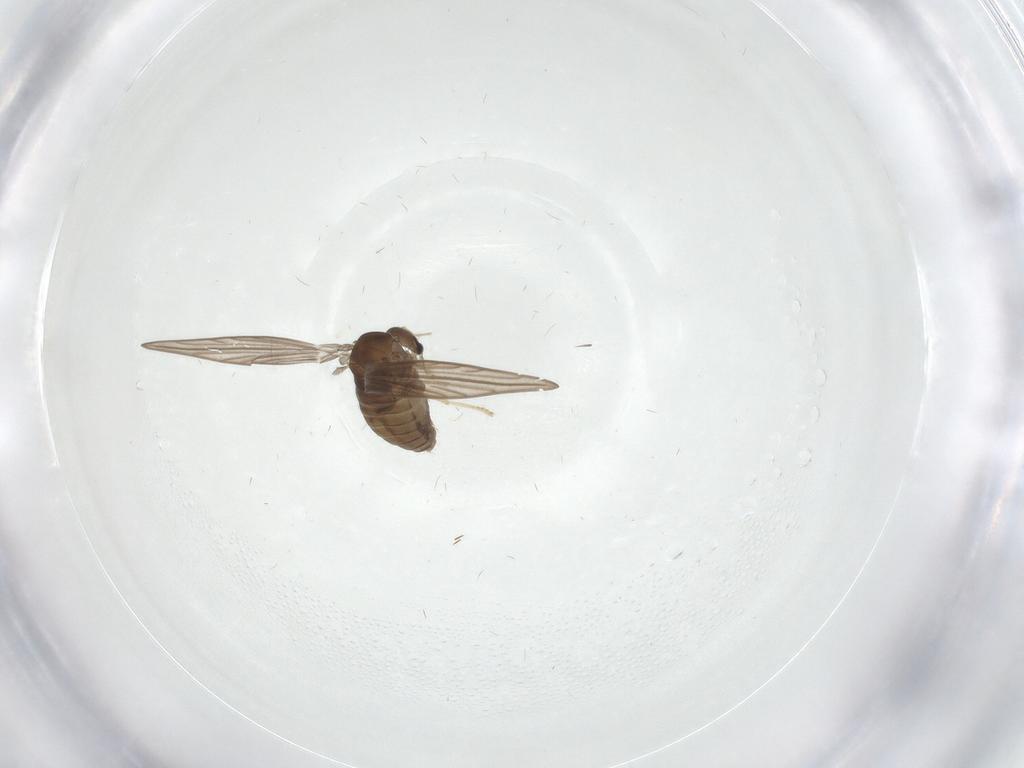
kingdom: Animalia
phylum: Arthropoda
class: Insecta
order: Diptera
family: Psychodidae
